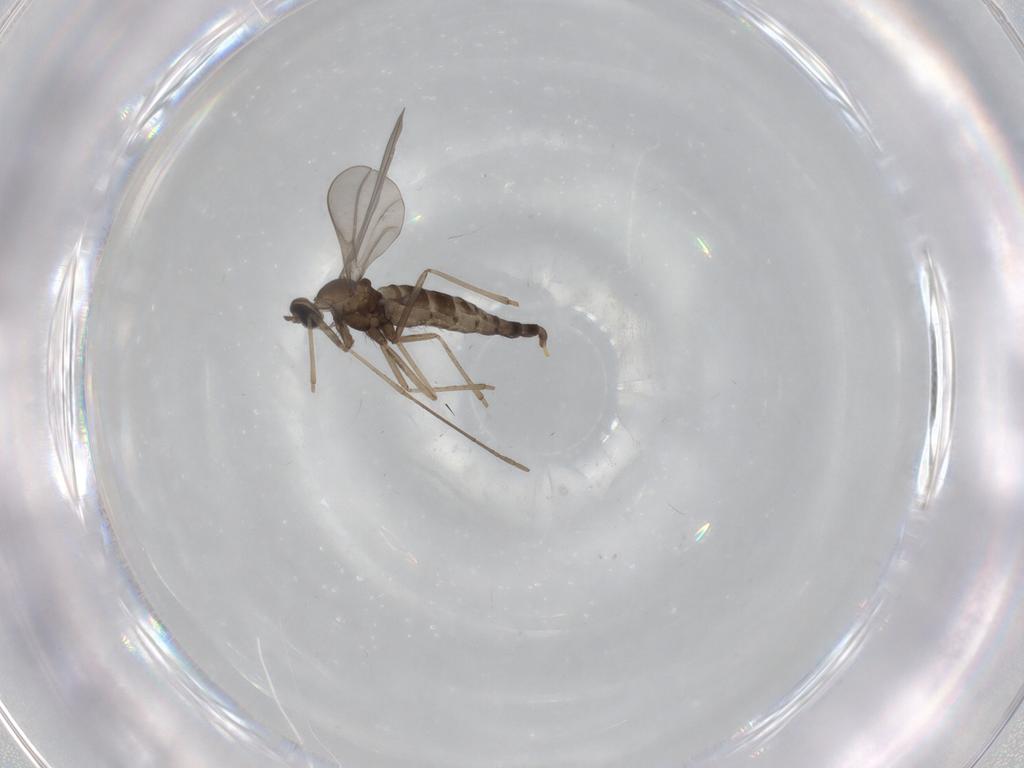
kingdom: Animalia
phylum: Arthropoda
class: Insecta
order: Diptera
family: Cecidomyiidae
